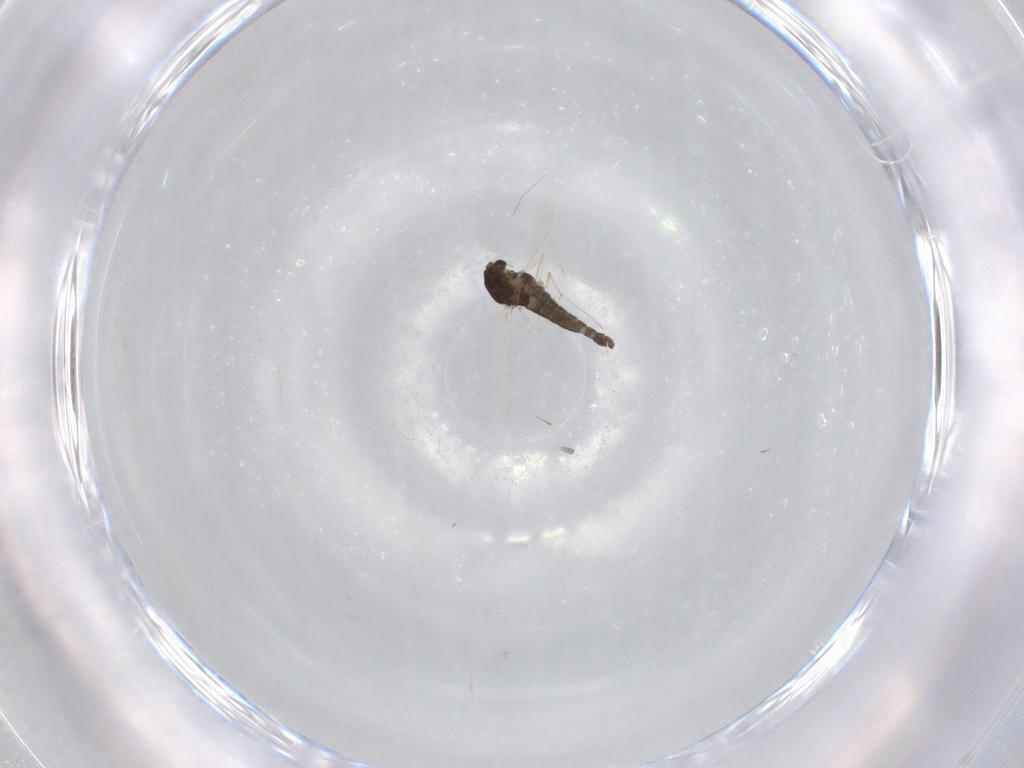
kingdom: Animalia
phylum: Arthropoda
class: Insecta
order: Diptera
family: Chironomidae
